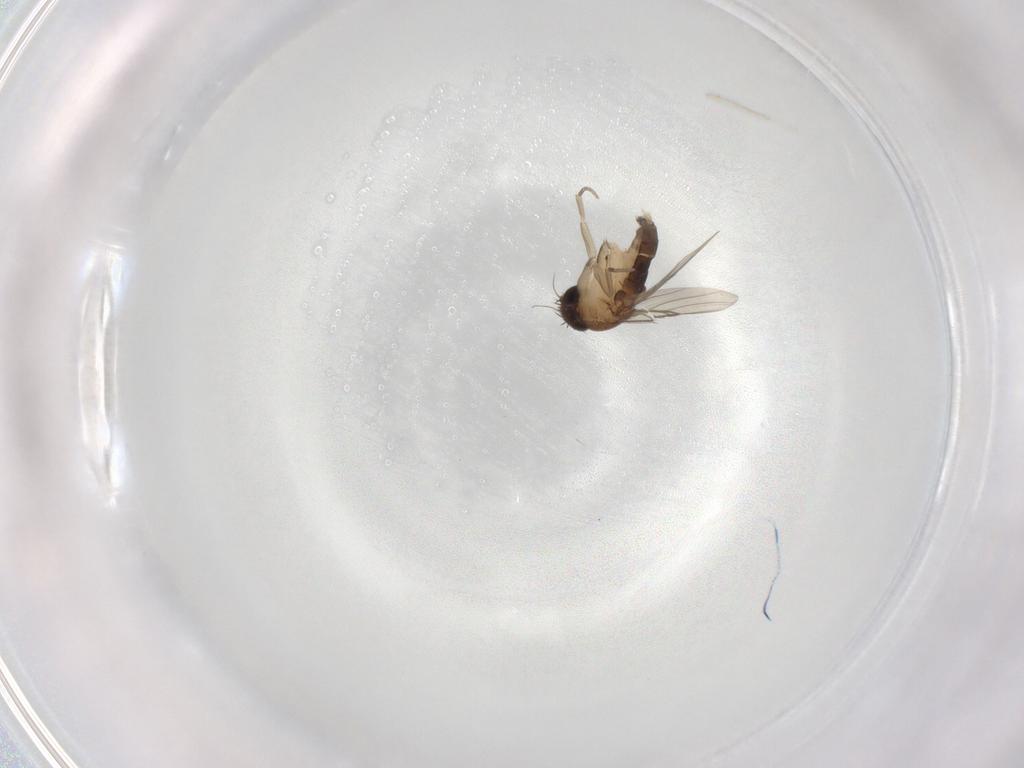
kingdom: Animalia
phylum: Arthropoda
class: Insecta
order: Diptera
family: Phoridae
